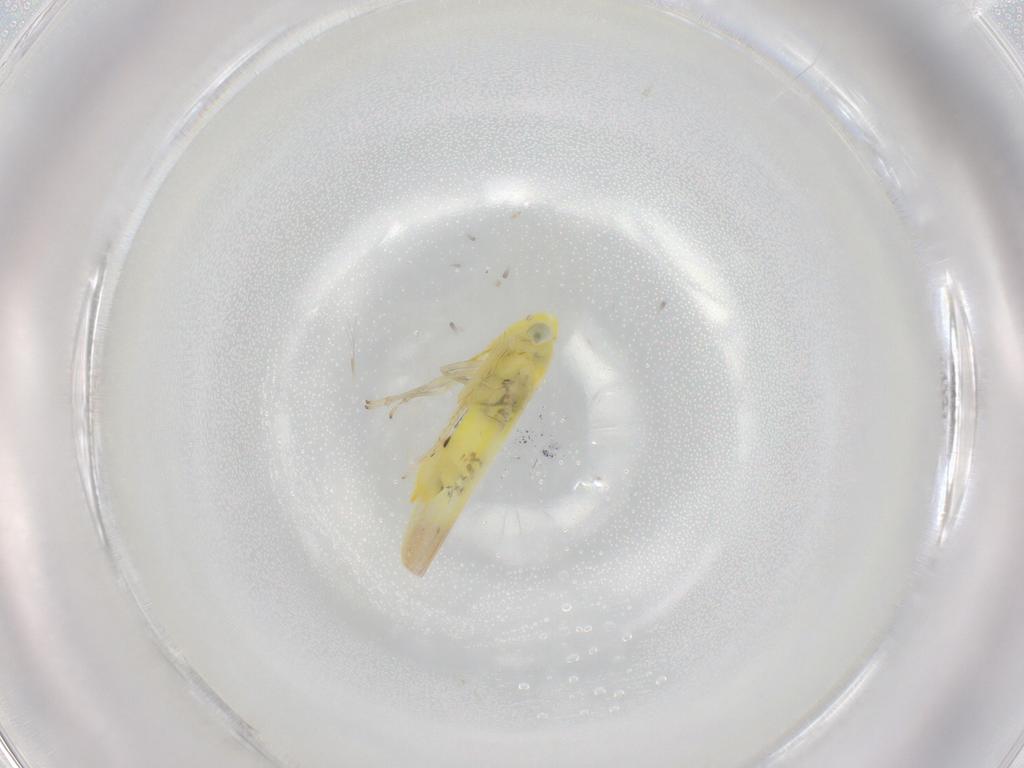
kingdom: Animalia
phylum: Arthropoda
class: Insecta
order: Hemiptera
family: Cicadellidae
